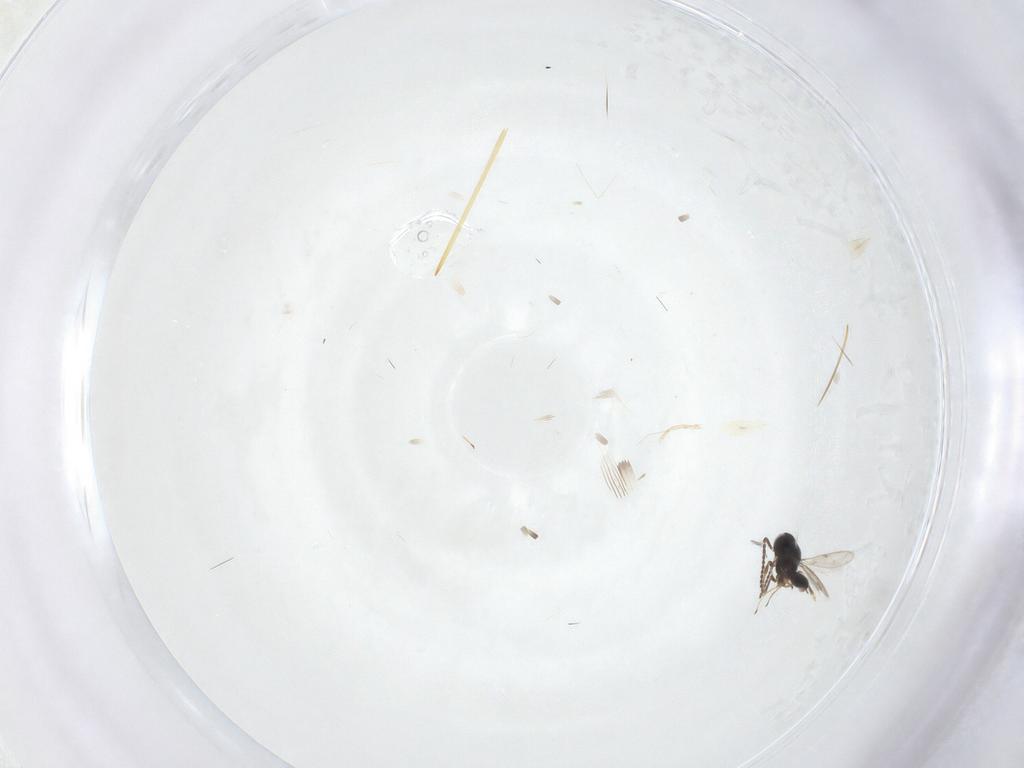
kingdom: Animalia
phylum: Arthropoda
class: Insecta
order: Hymenoptera
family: Scelionidae
